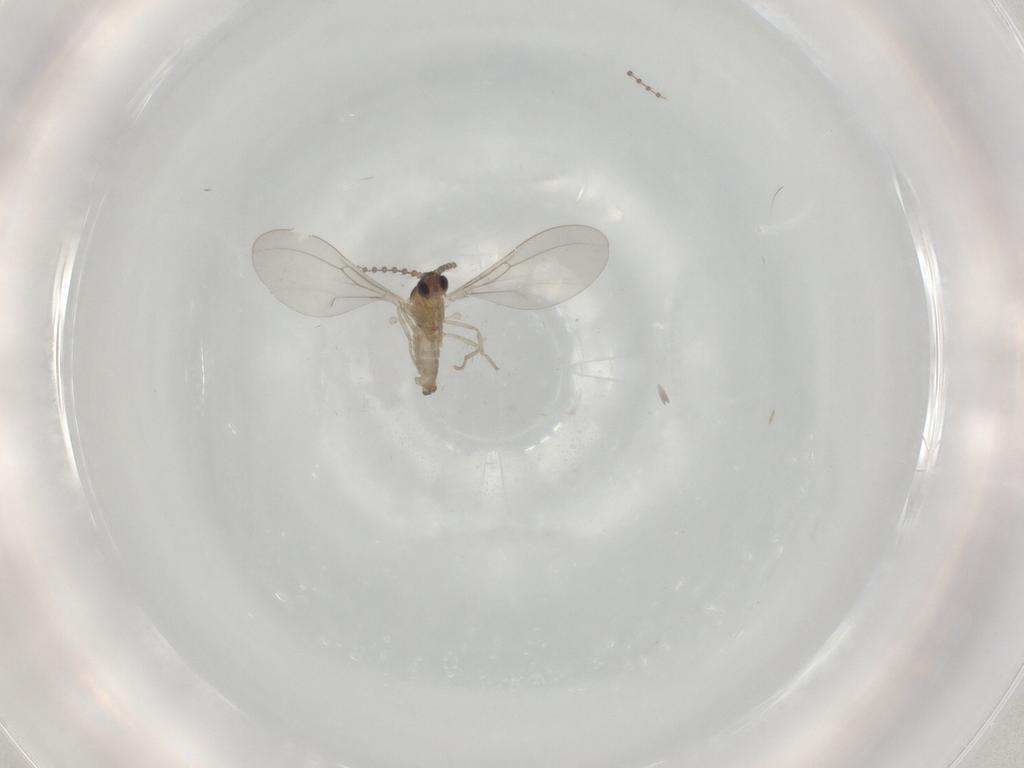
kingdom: Animalia
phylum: Arthropoda
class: Insecta
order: Diptera
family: Cecidomyiidae
